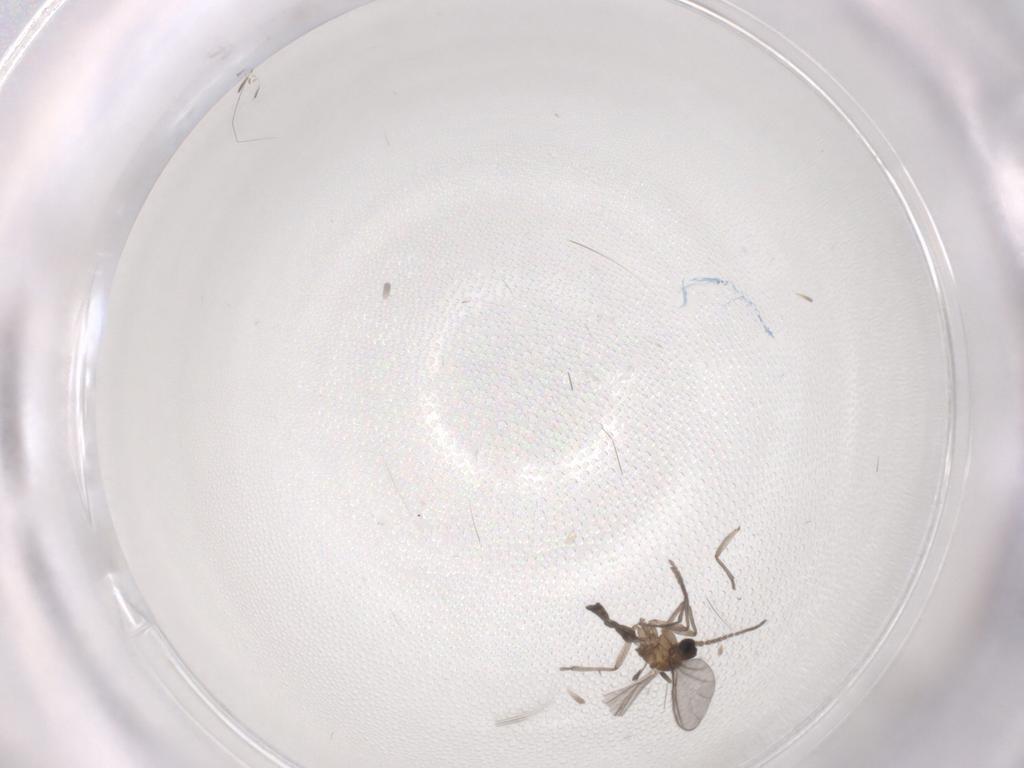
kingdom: Animalia
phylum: Arthropoda
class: Insecta
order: Diptera
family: Sciaridae
